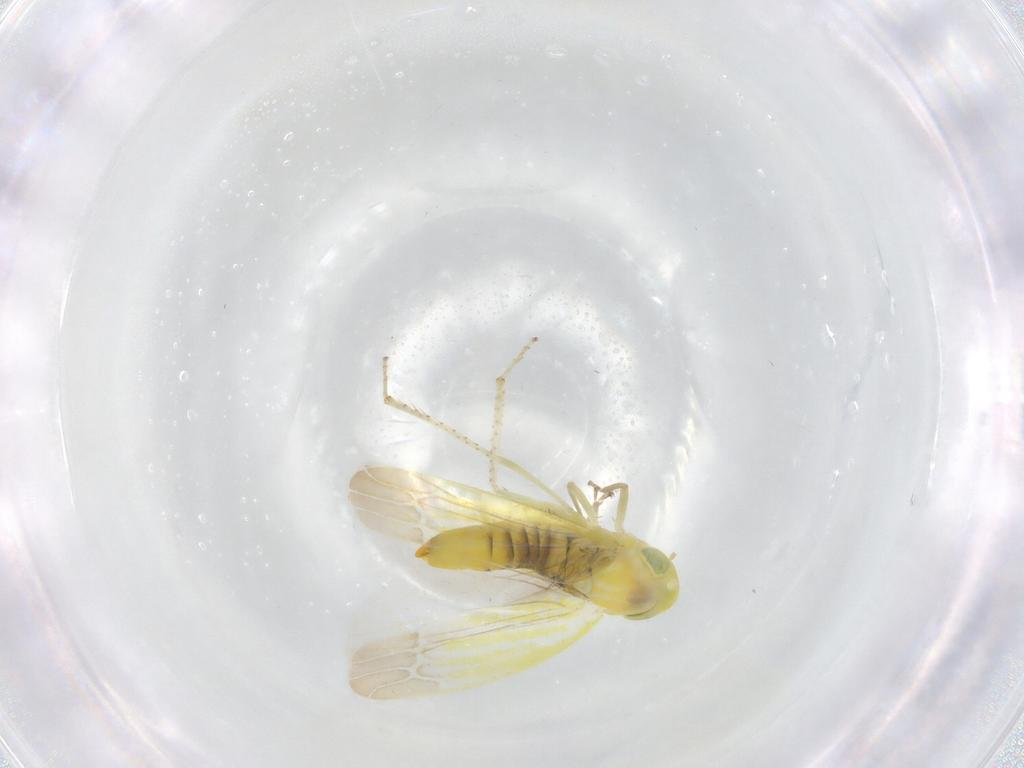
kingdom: Animalia
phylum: Arthropoda
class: Insecta
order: Hemiptera
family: Cicadellidae
